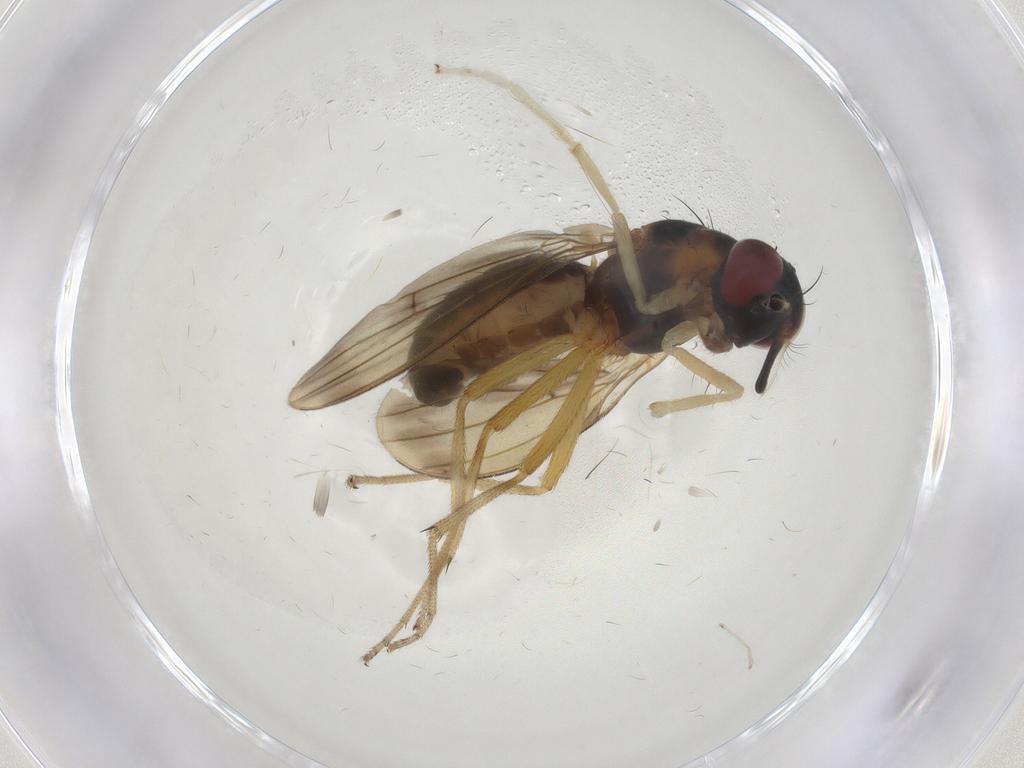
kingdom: Animalia
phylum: Arthropoda
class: Insecta
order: Diptera
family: Lauxaniidae
